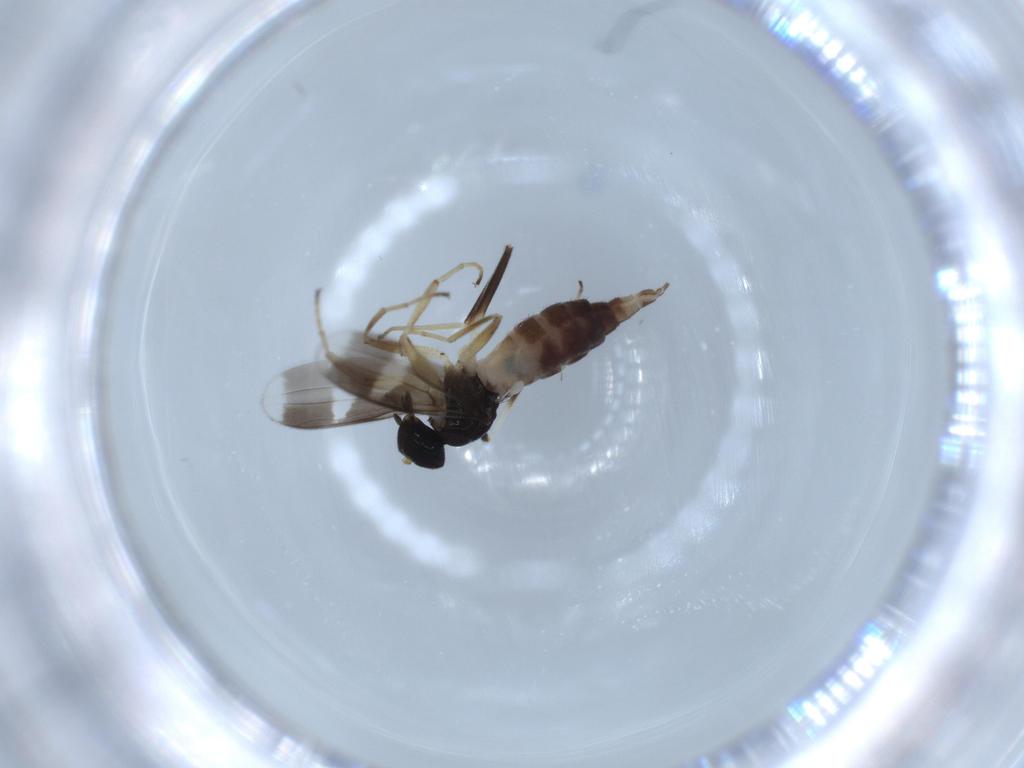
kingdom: Animalia
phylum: Arthropoda
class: Insecta
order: Diptera
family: Hybotidae
